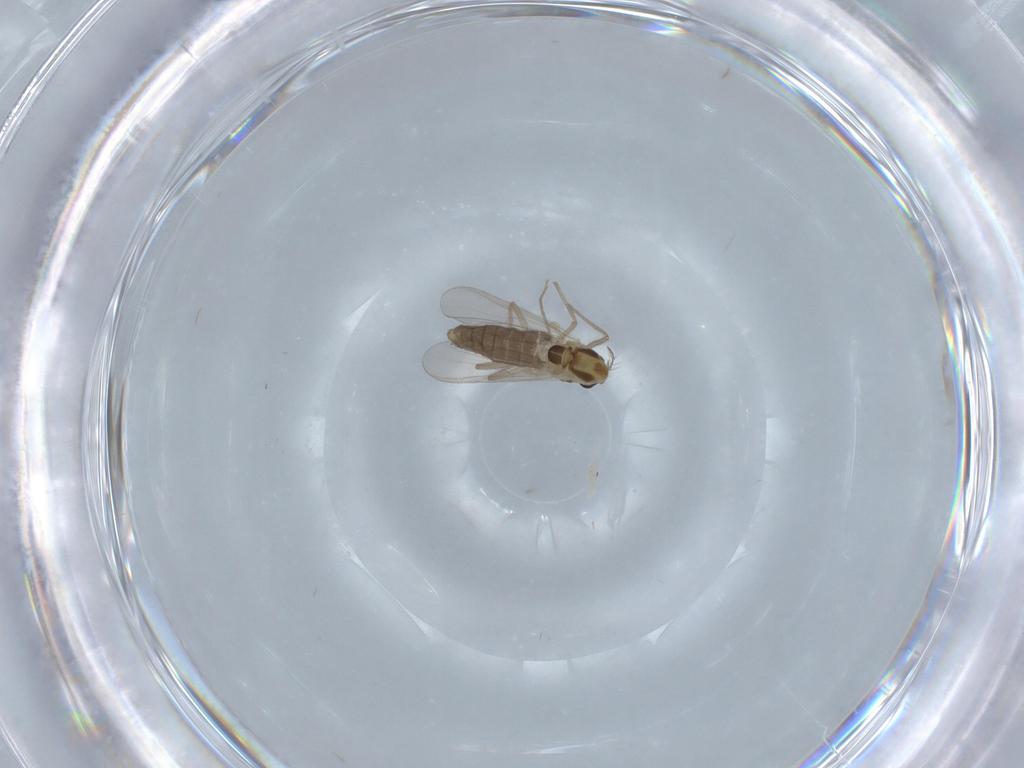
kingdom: Animalia
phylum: Arthropoda
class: Insecta
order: Diptera
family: Chironomidae
